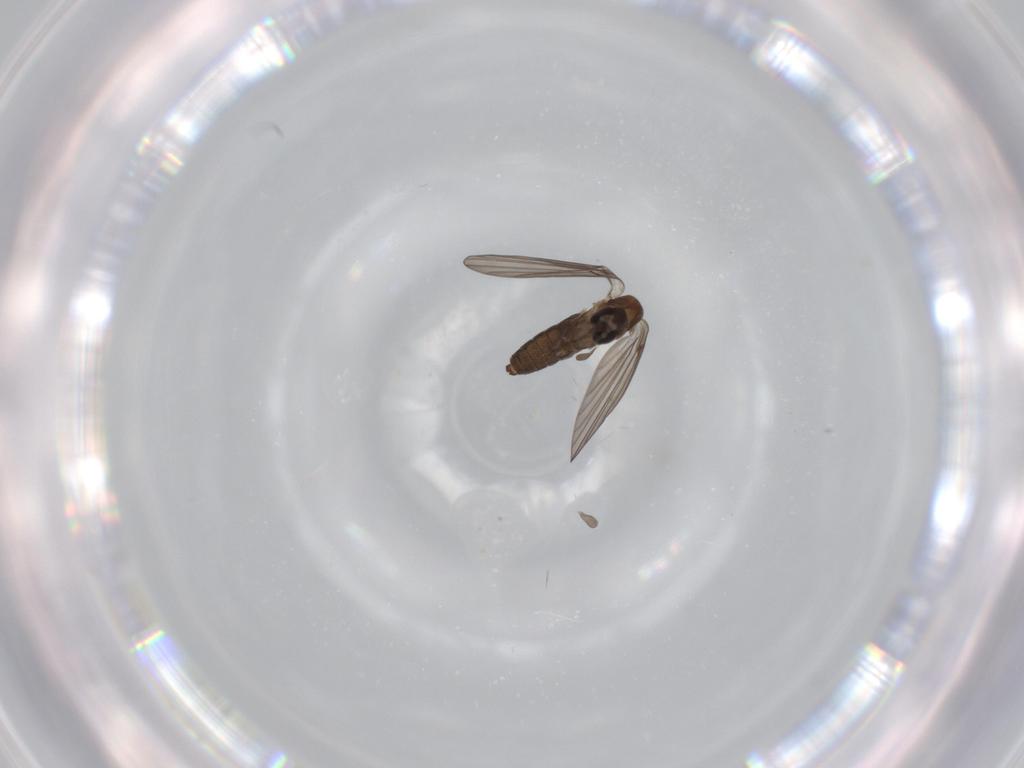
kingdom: Animalia
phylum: Arthropoda
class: Insecta
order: Diptera
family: Psychodidae
